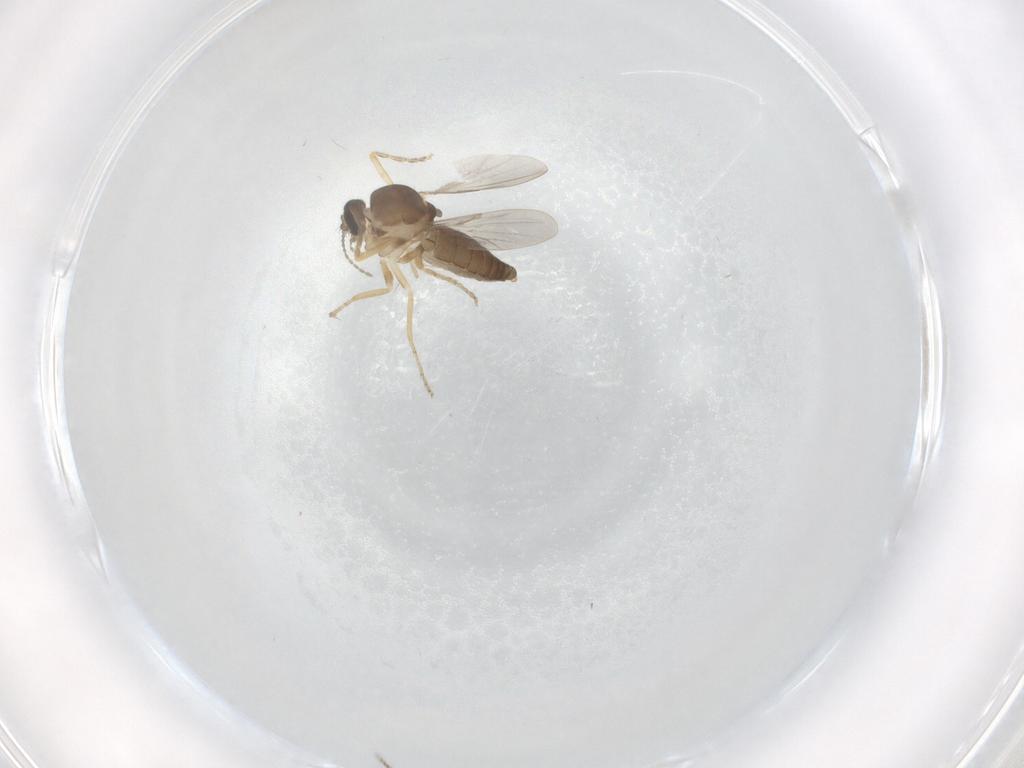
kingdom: Animalia
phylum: Arthropoda
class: Insecta
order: Diptera
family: Ceratopogonidae
